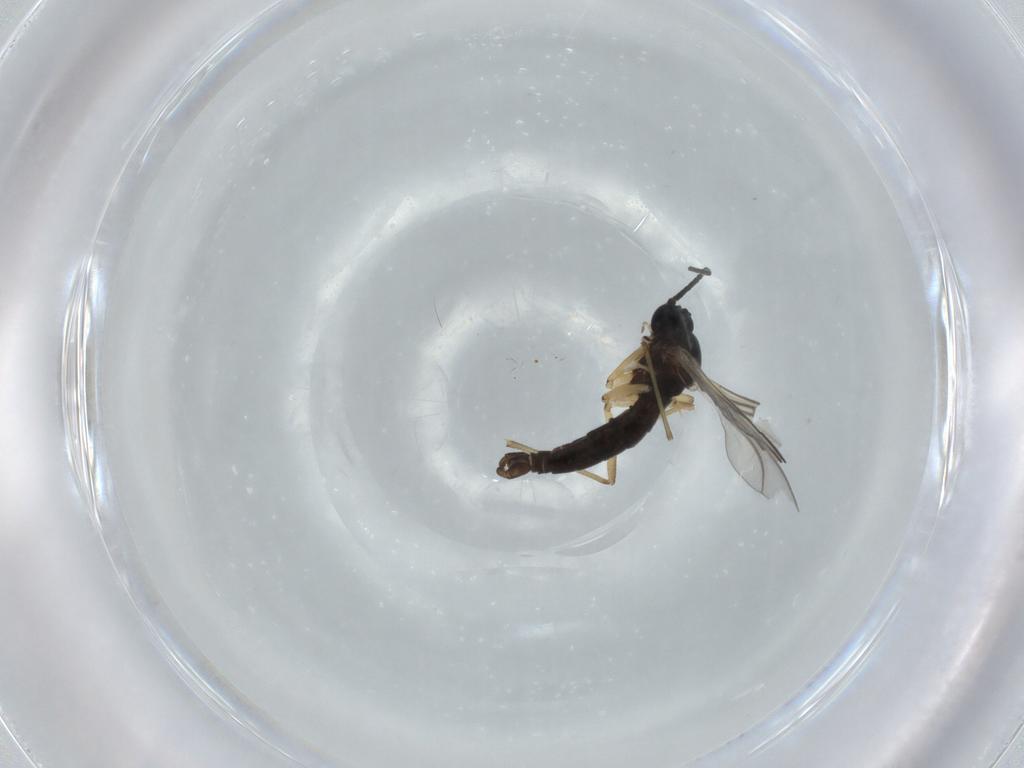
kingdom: Animalia
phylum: Arthropoda
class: Insecta
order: Diptera
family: Sciaridae
